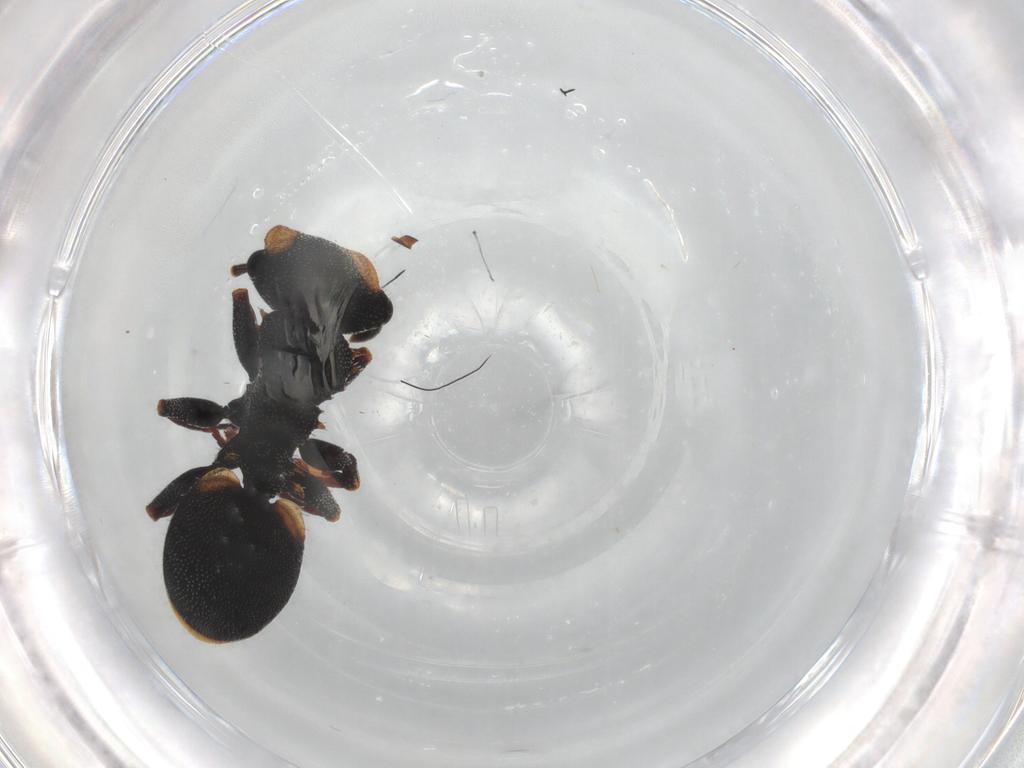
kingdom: Animalia
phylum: Arthropoda
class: Insecta
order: Hymenoptera
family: Formicidae
